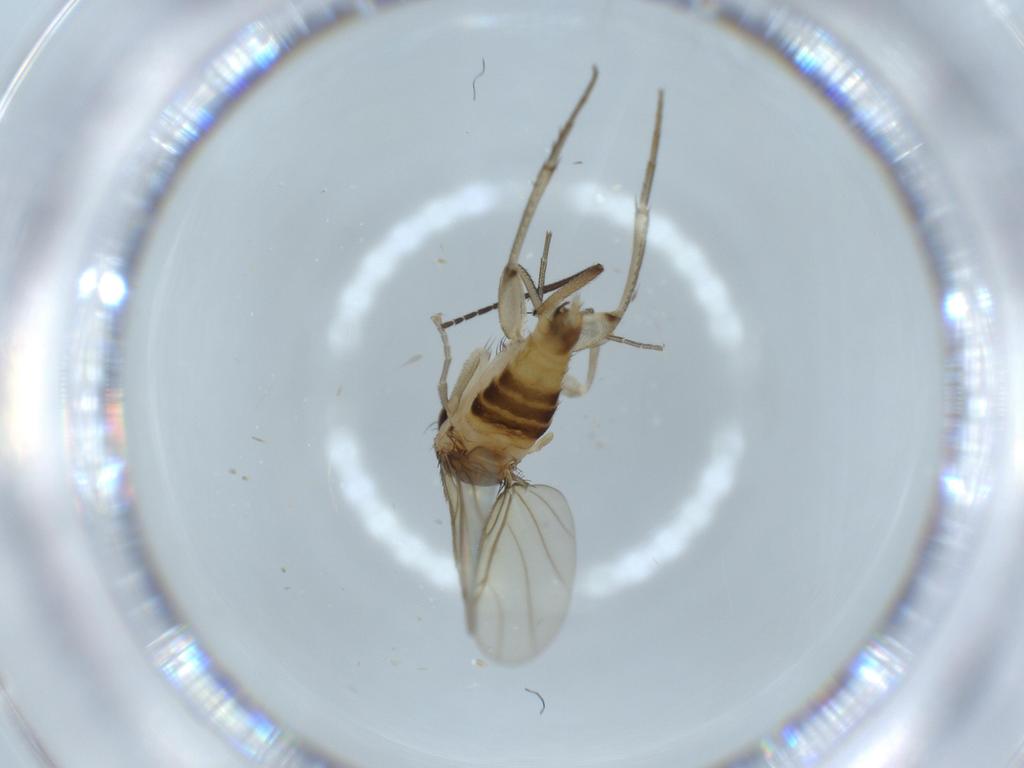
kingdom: Animalia
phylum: Arthropoda
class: Insecta
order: Diptera
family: Phoridae
